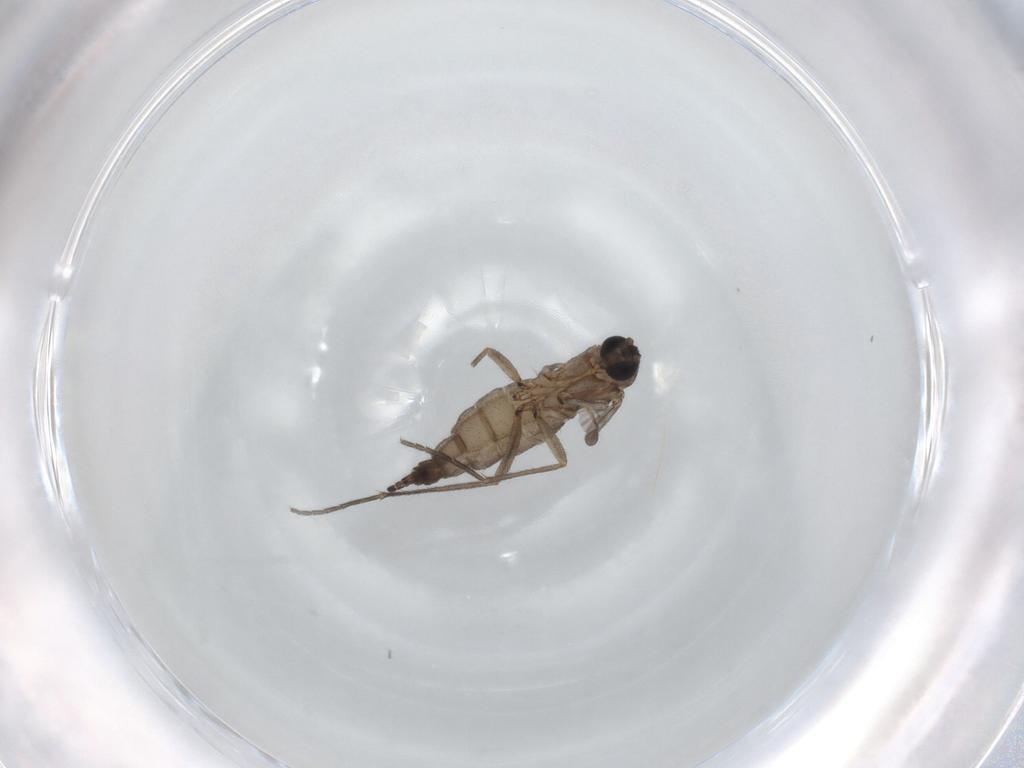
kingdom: Animalia
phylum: Arthropoda
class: Insecta
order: Diptera
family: Sciaridae
